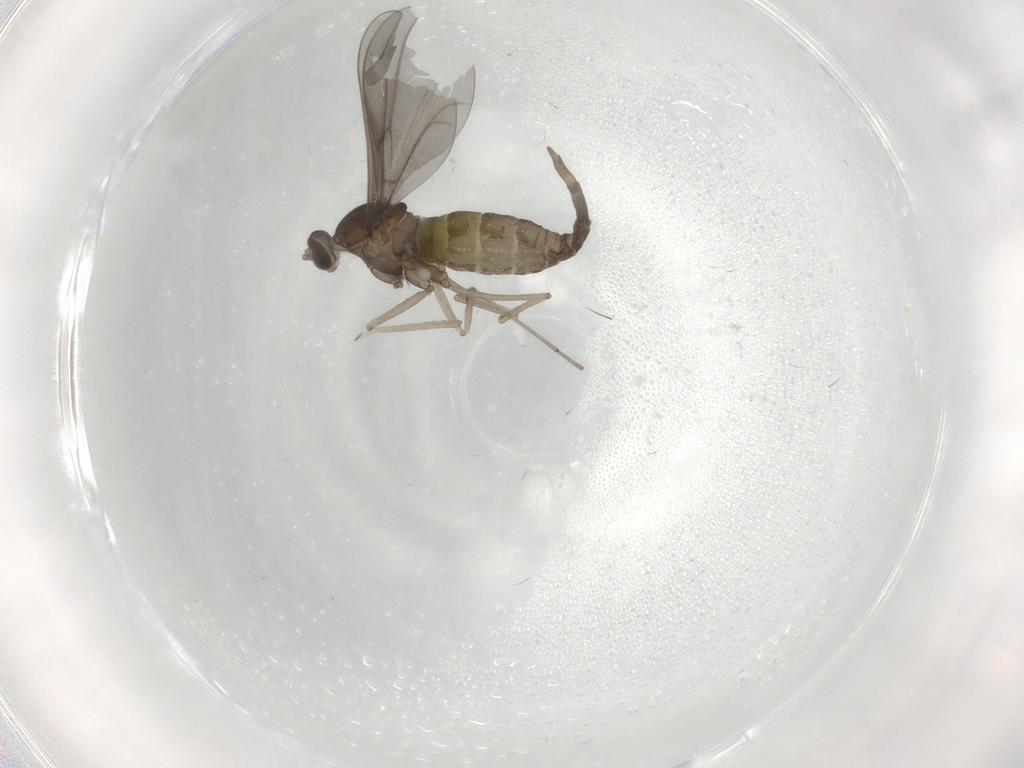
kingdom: Animalia
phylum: Arthropoda
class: Insecta
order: Diptera
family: Cecidomyiidae
